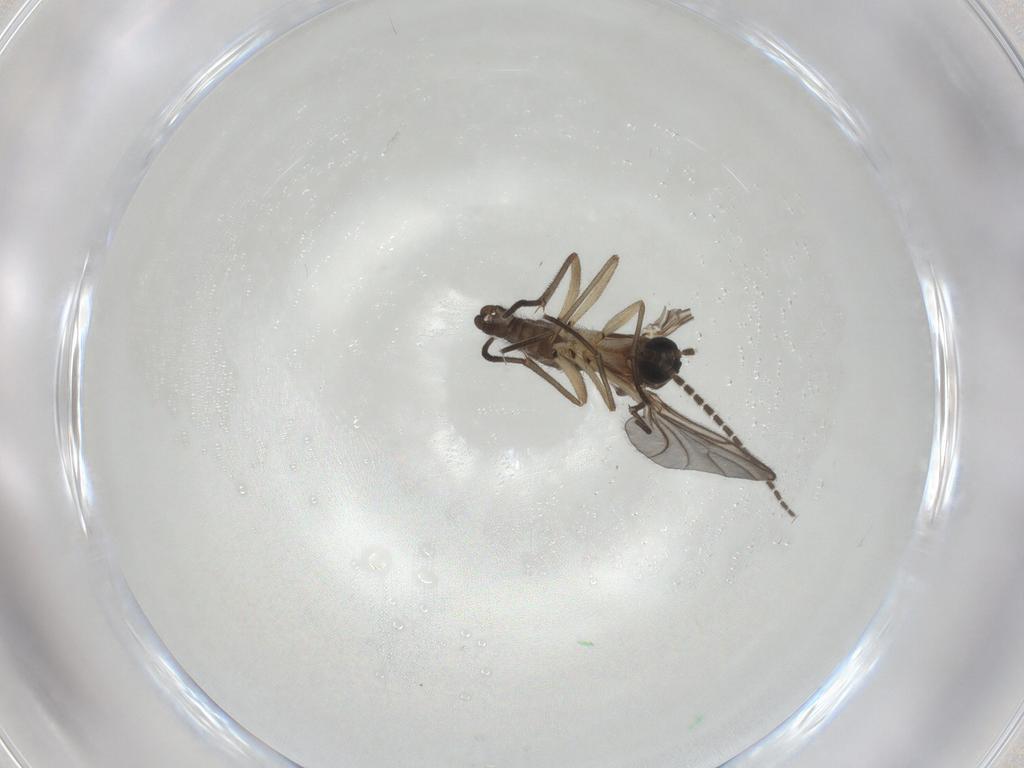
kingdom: Animalia
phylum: Arthropoda
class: Insecta
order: Diptera
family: Sciaridae
